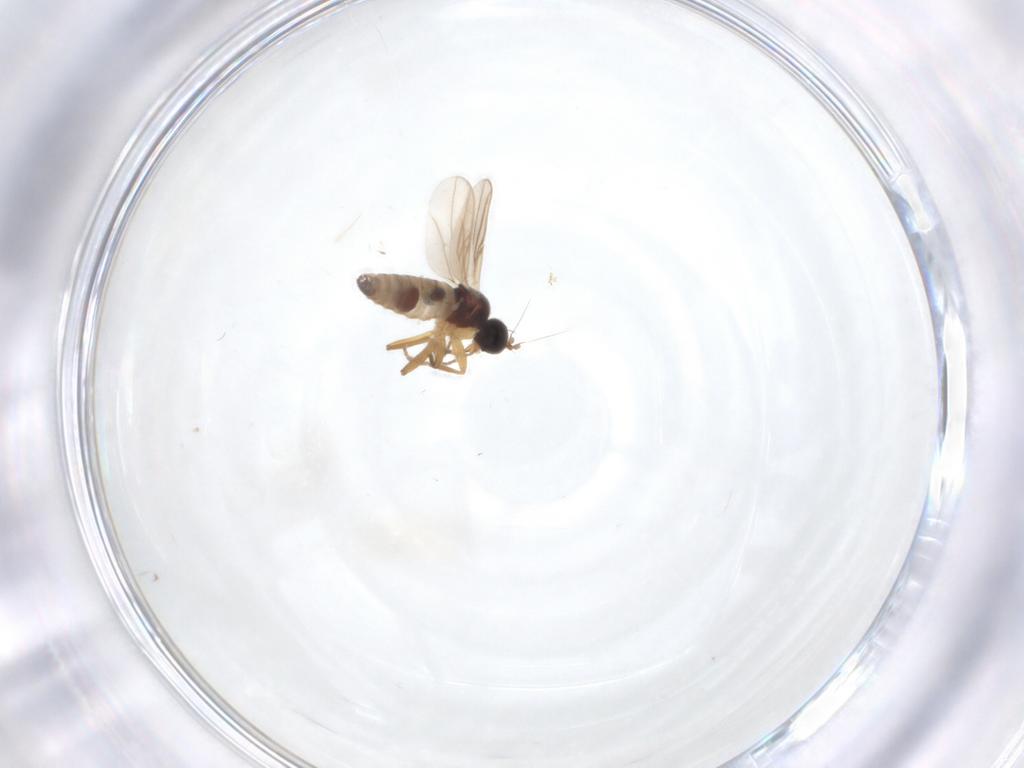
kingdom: Animalia
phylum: Arthropoda
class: Insecta
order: Diptera
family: Hybotidae
